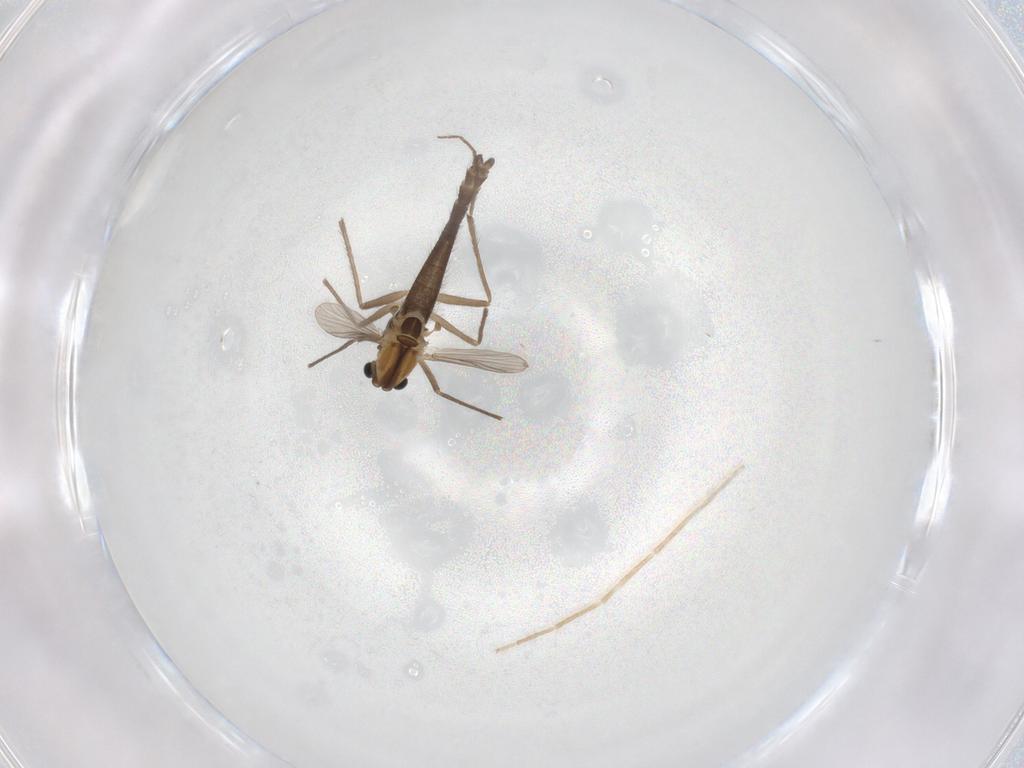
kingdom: Animalia
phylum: Arthropoda
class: Insecta
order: Diptera
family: Chironomidae
